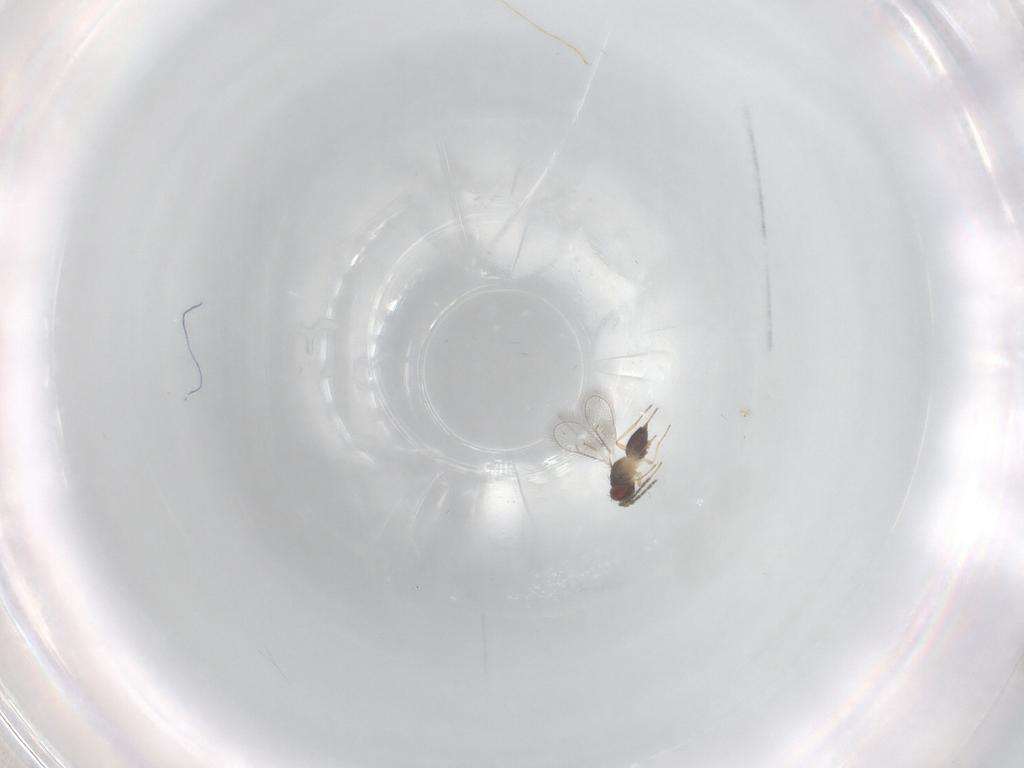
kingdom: Animalia
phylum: Arthropoda
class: Insecta
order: Hymenoptera
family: Eulophidae
